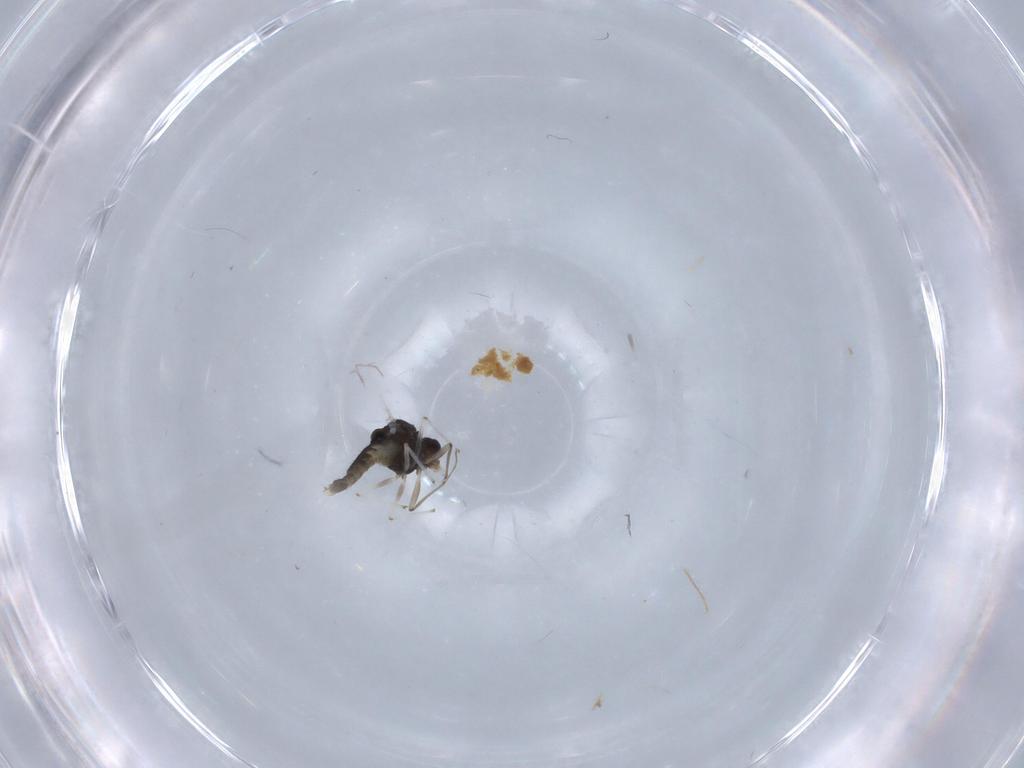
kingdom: Animalia
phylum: Arthropoda
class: Insecta
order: Diptera
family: Chironomidae
